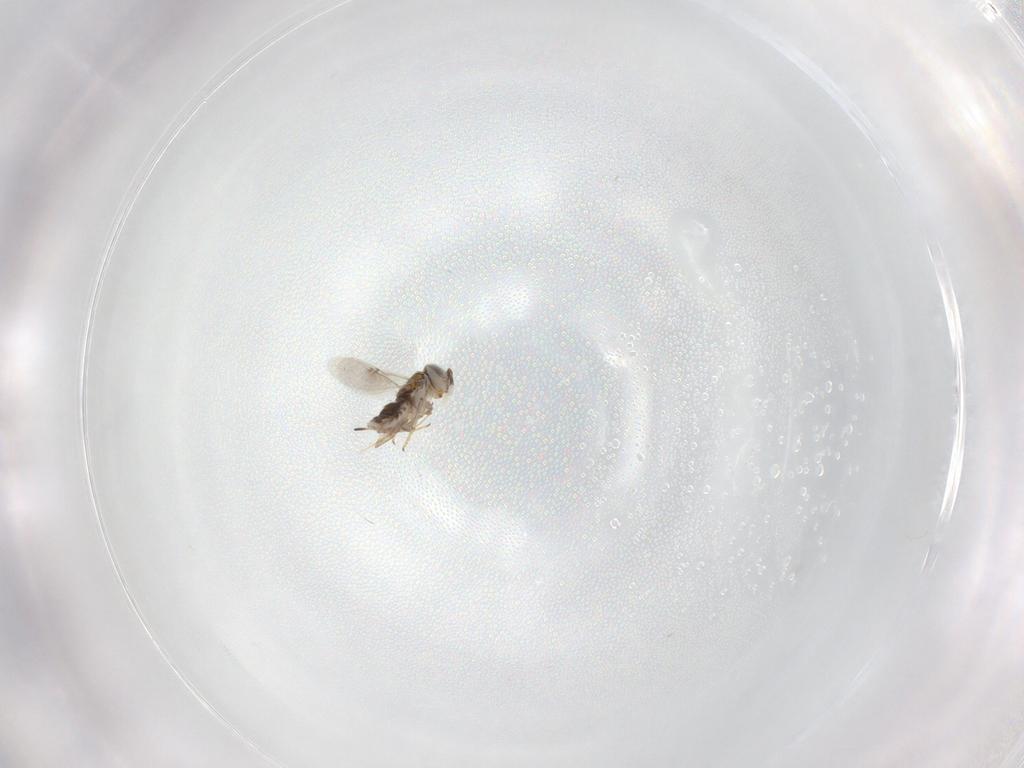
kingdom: Animalia
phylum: Arthropoda
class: Insecta
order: Hymenoptera
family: Encyrtidae
